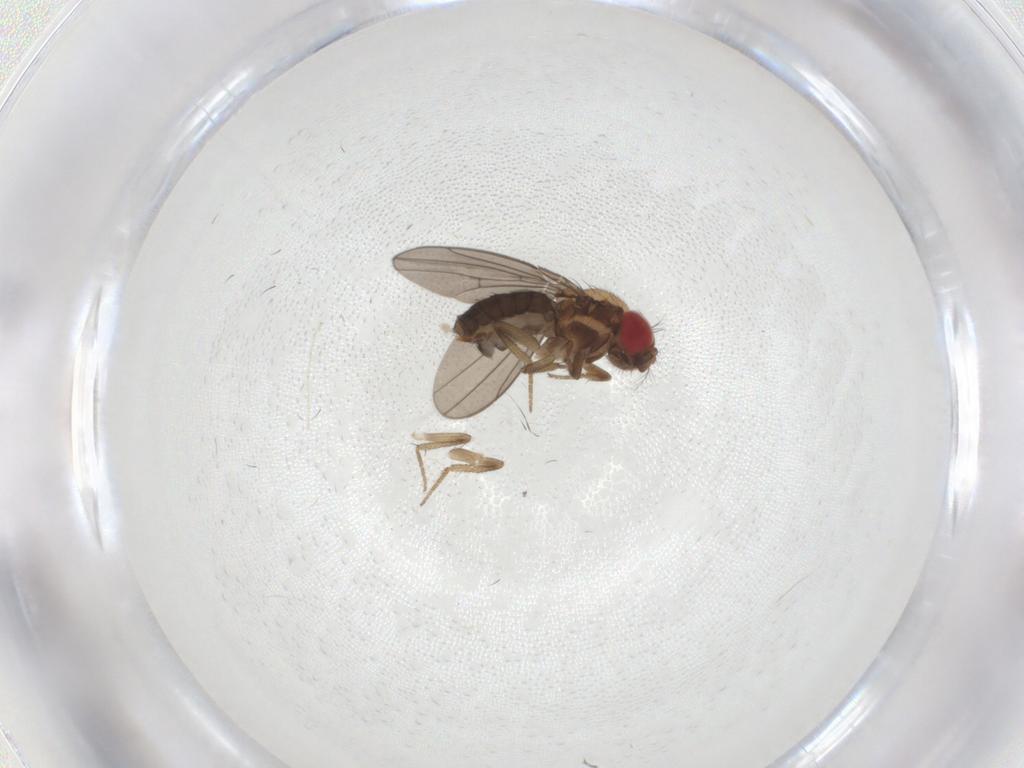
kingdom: Animalia
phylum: Arthropoda
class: Insecta
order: Diptera
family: Drosophilidae
